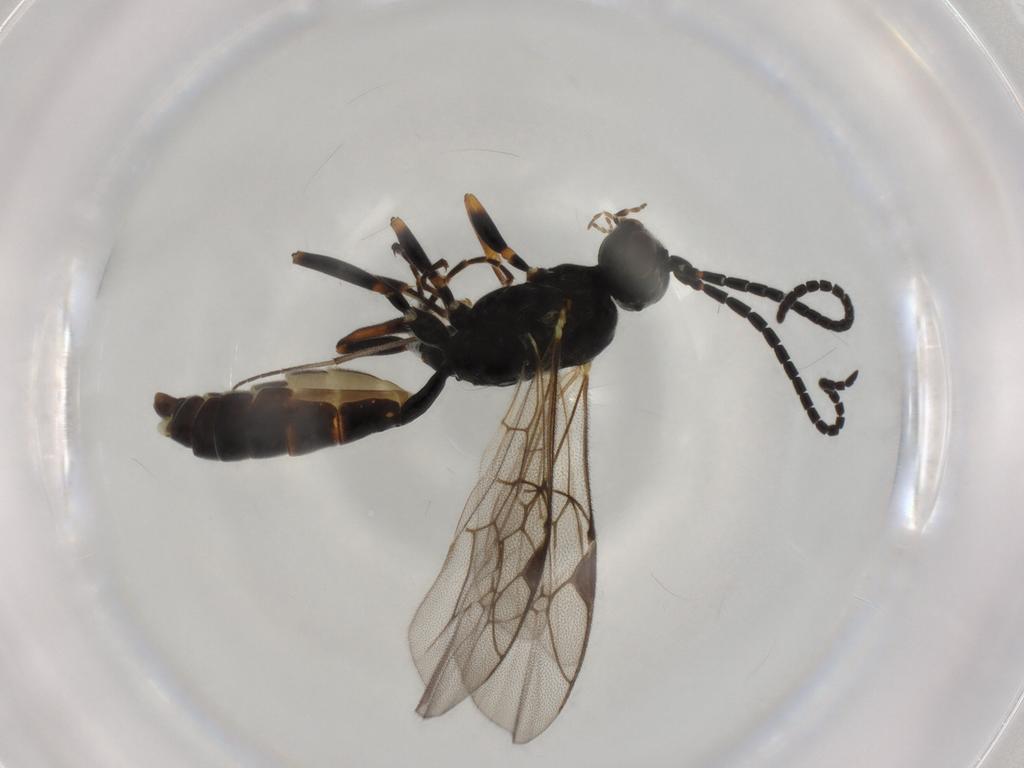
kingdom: Animalia
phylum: Arthropoda
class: Insecta
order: Hymenoptera
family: Ichneumonidae
